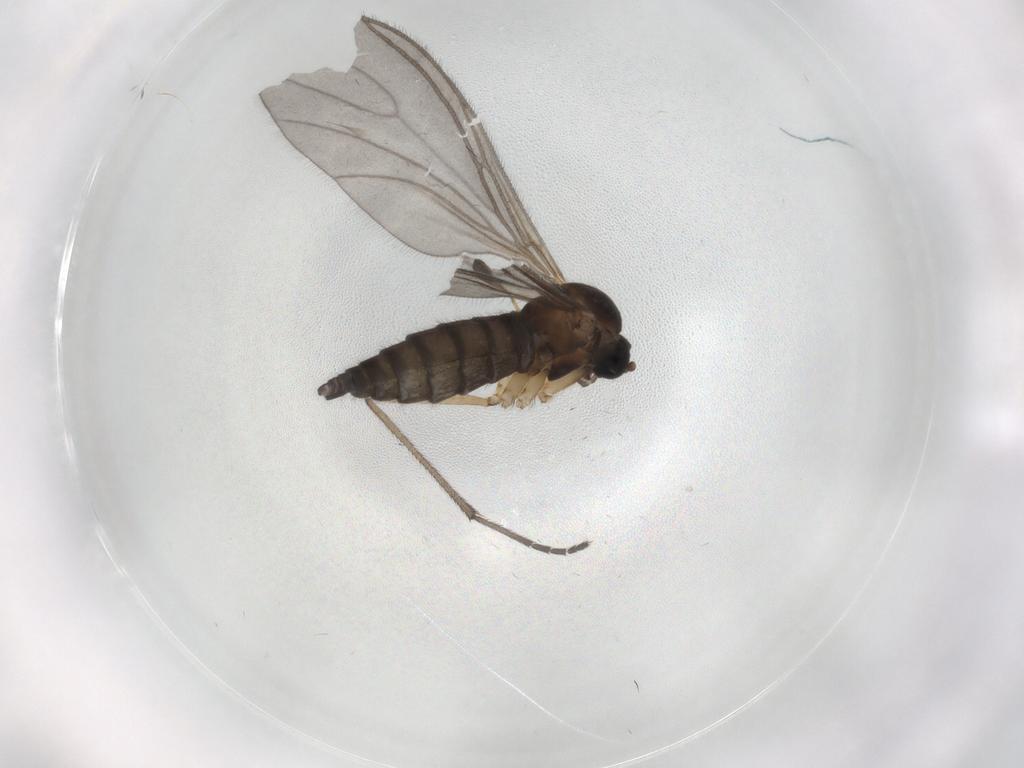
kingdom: Animalia
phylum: Arthropoda
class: Insecta
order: Diptera
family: Sciaridae
